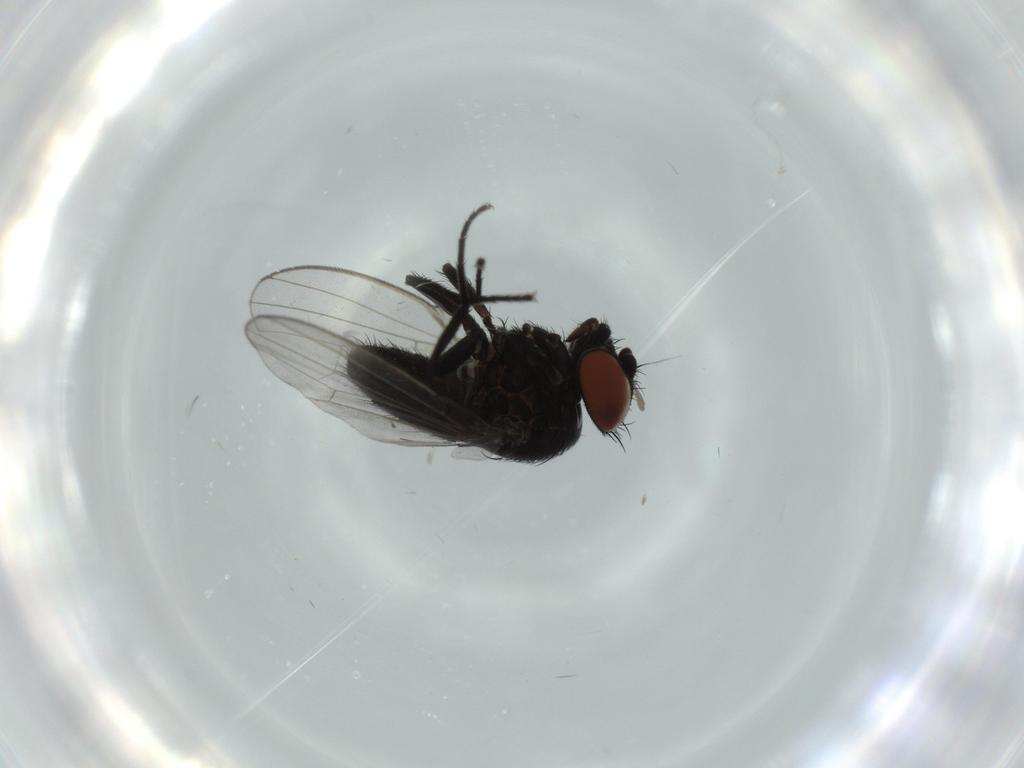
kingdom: Animalia
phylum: Arthropoda
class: Insecta
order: Diptera
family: Milichiidae
